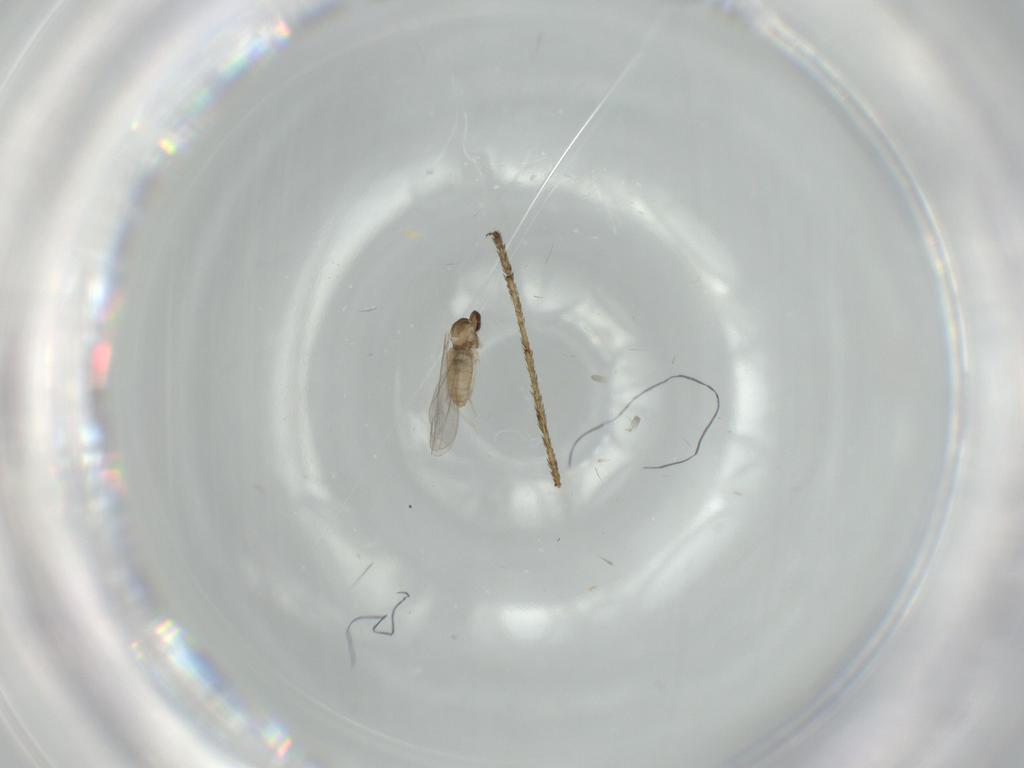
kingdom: Animalia
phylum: Arthropoda
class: Insecta
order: Diptera
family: Cecidomyiidae
